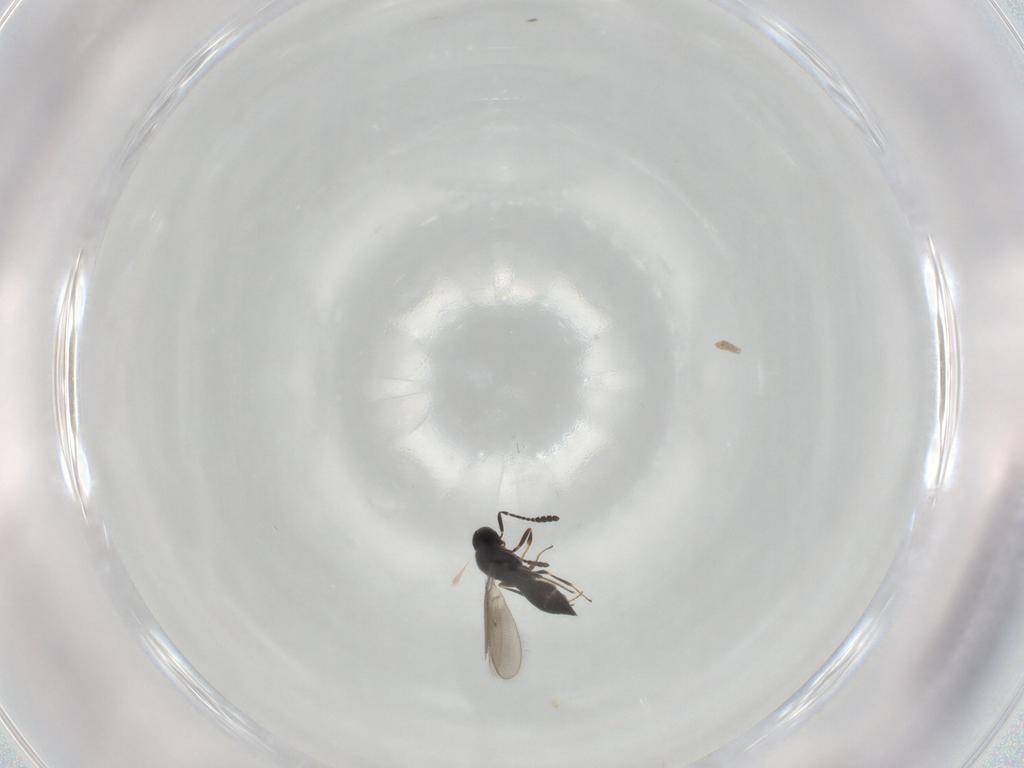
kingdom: Animalia
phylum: Arthropoda
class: Insecta
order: Hymenoptera
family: Scelionidae
